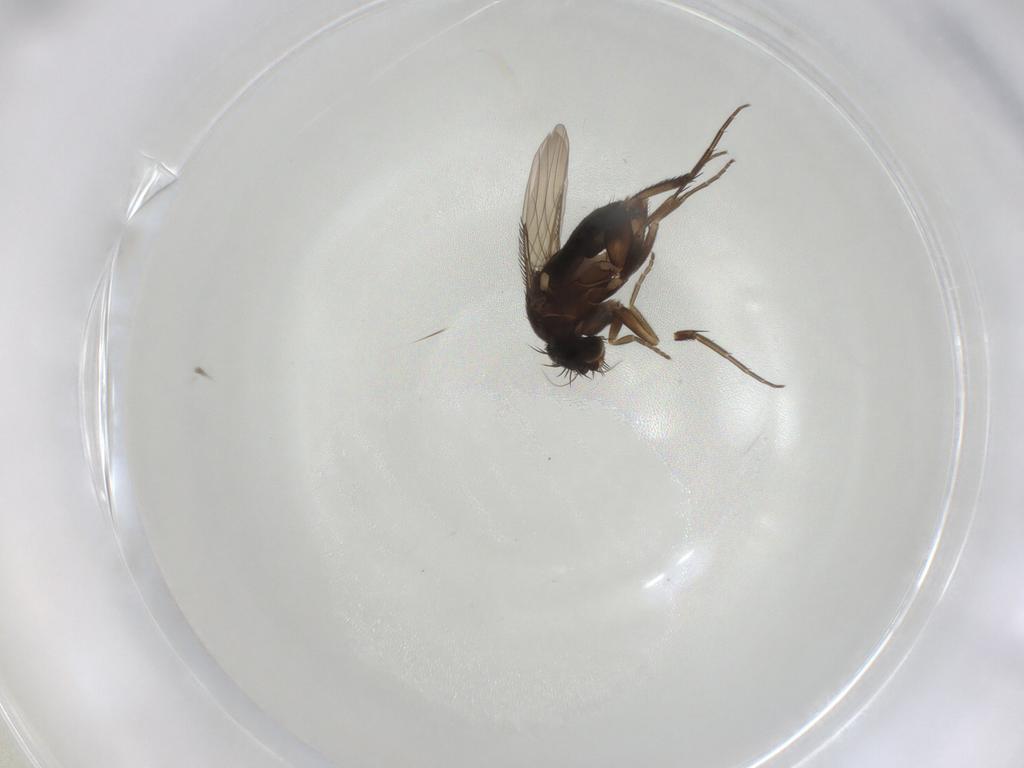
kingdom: Animalia
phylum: Arthropoda
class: Insecta
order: Diptera
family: Phoridae
